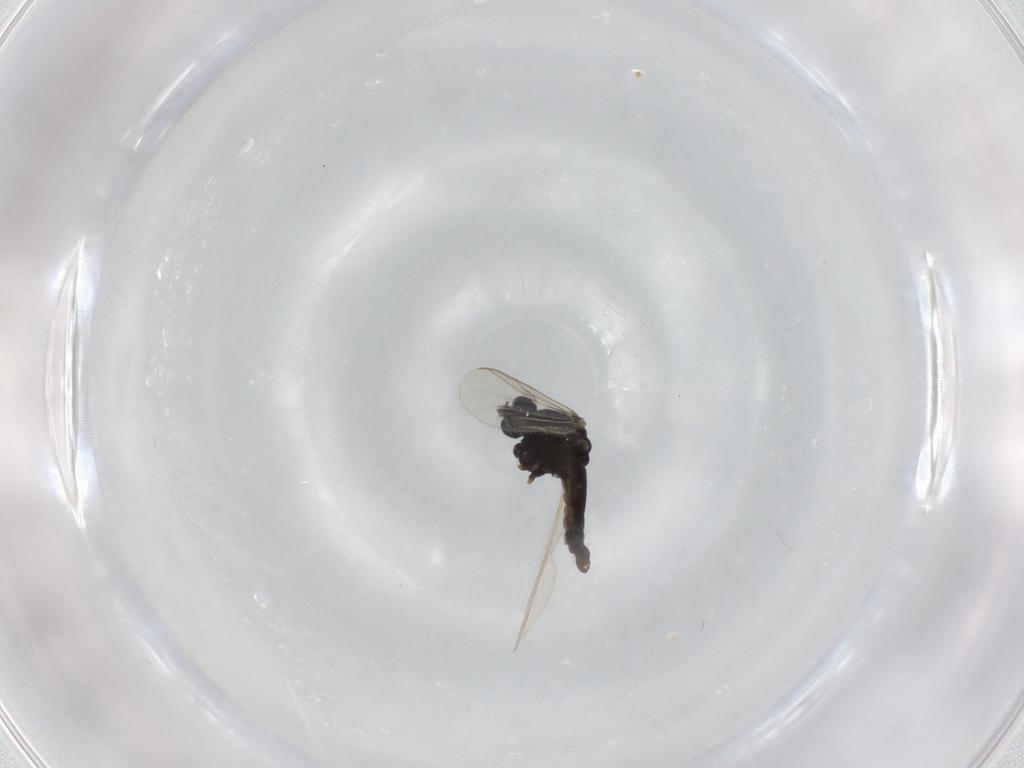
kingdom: Animalia
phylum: Arthropoda
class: Insecta
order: Diptera
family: Chironomidae
